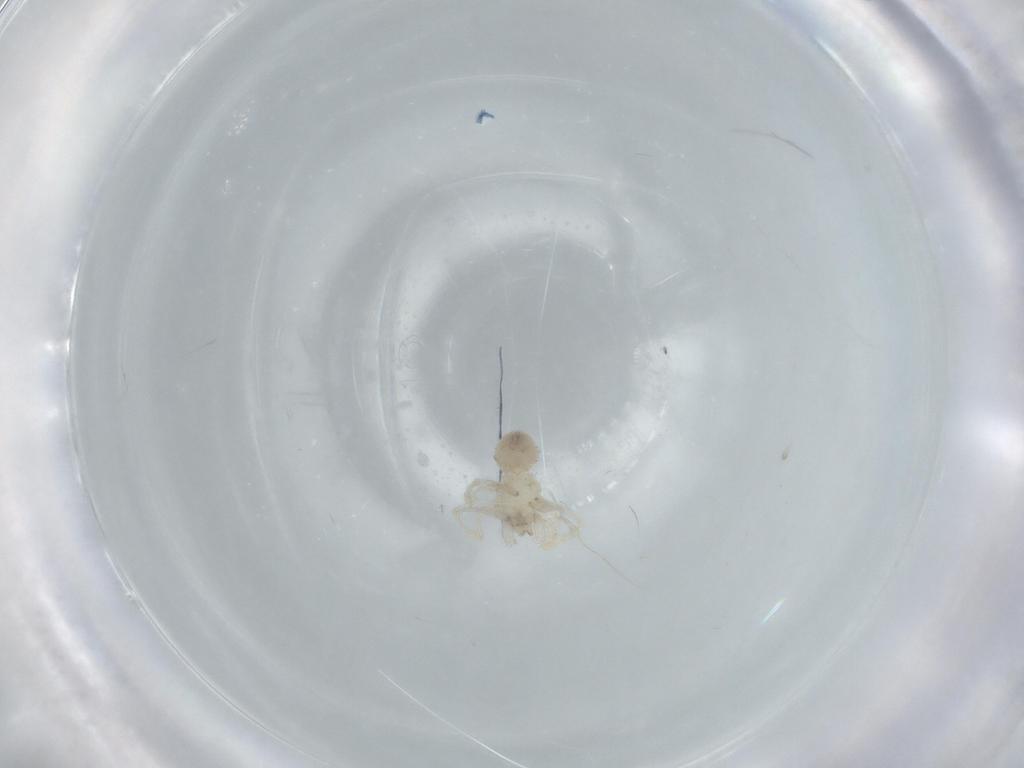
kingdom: Animalia
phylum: Arthropoda
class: Arachnida
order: Araneae
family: Oonopidae
